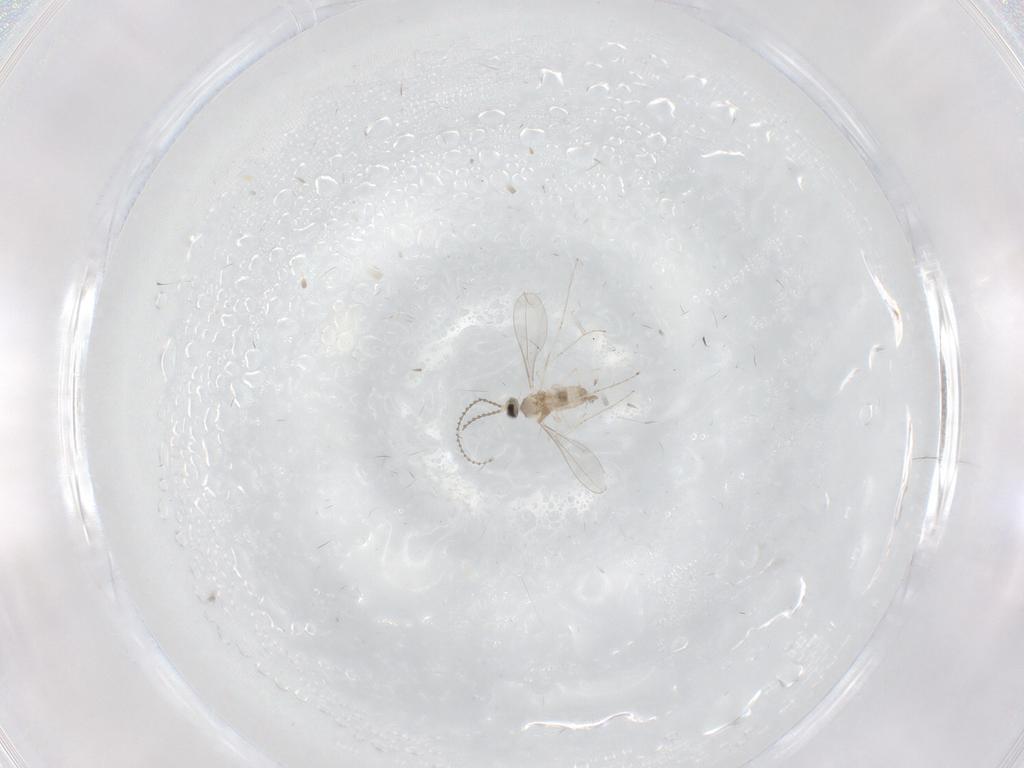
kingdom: Animalia
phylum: Arthropoda
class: Insecta
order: Diptera
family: Cecidomyiidae
